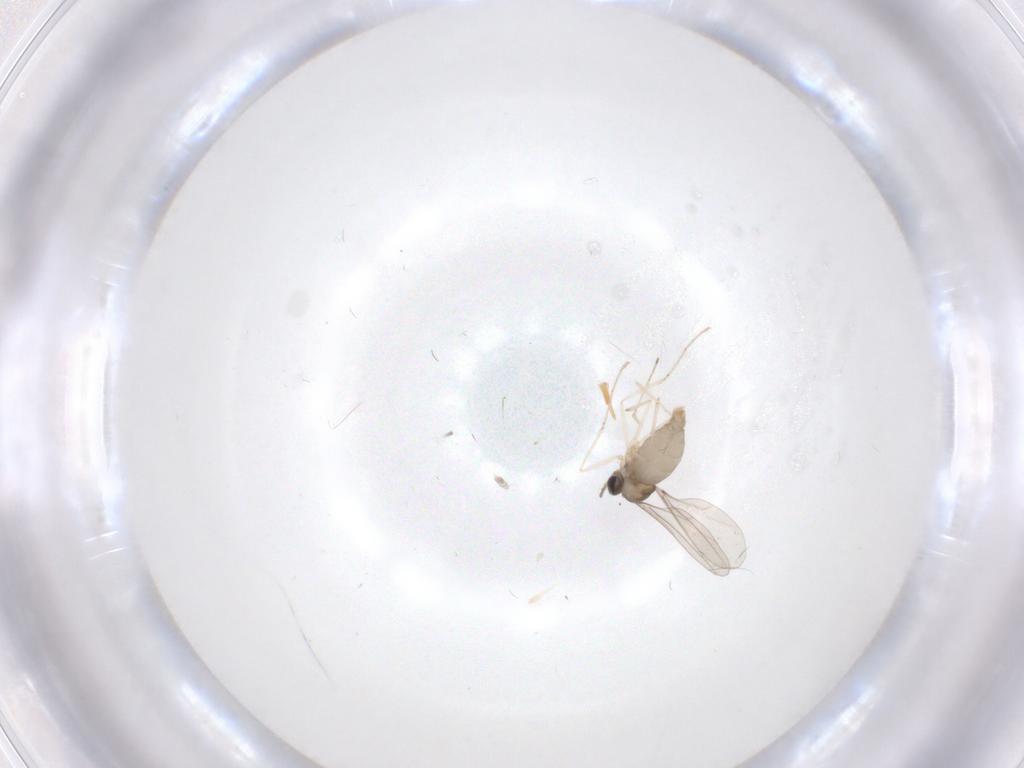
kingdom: Animalia
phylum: Arthropoda
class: Insecta
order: Diptera
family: Cecidomyiidae
